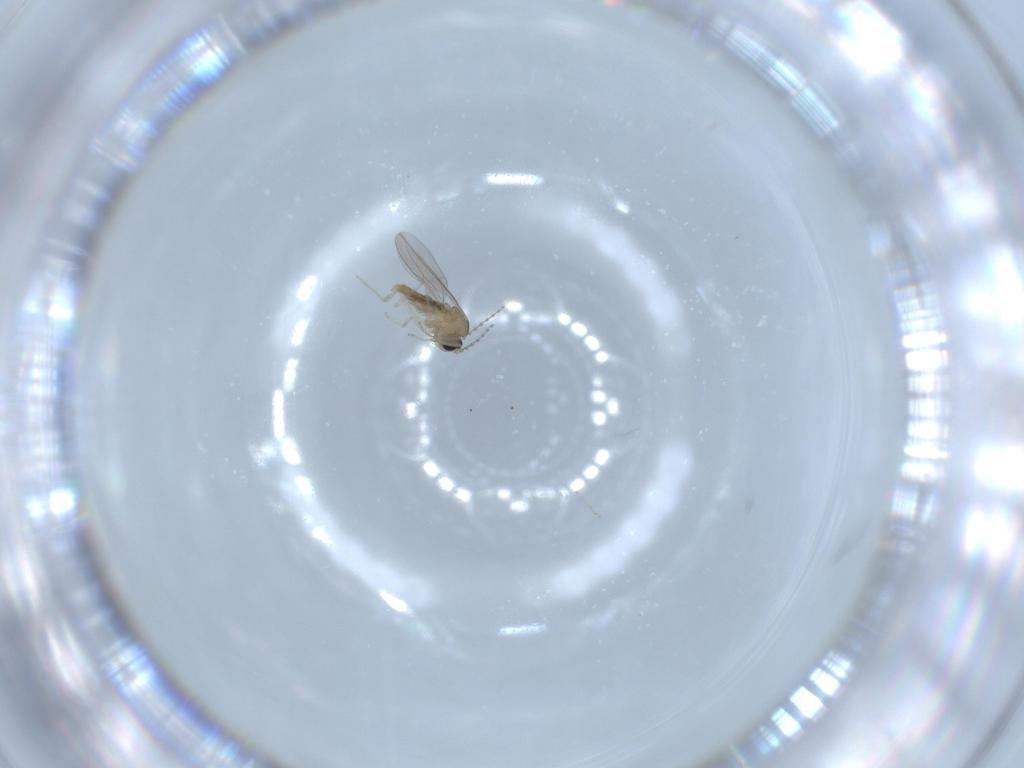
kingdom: Animalia
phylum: Arthropoda
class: Insecta
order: Diptera
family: Cecidomyiidae
